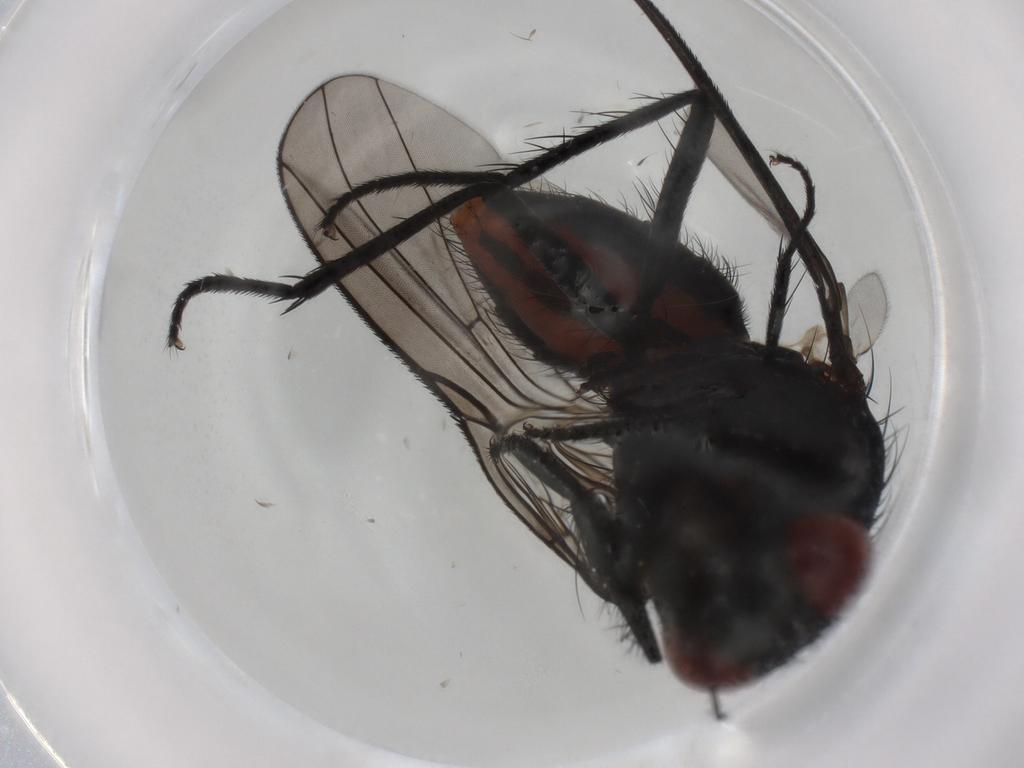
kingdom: Animalia
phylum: Arthropoda
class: Insecta
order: Diptera
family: Anthomyiidae
